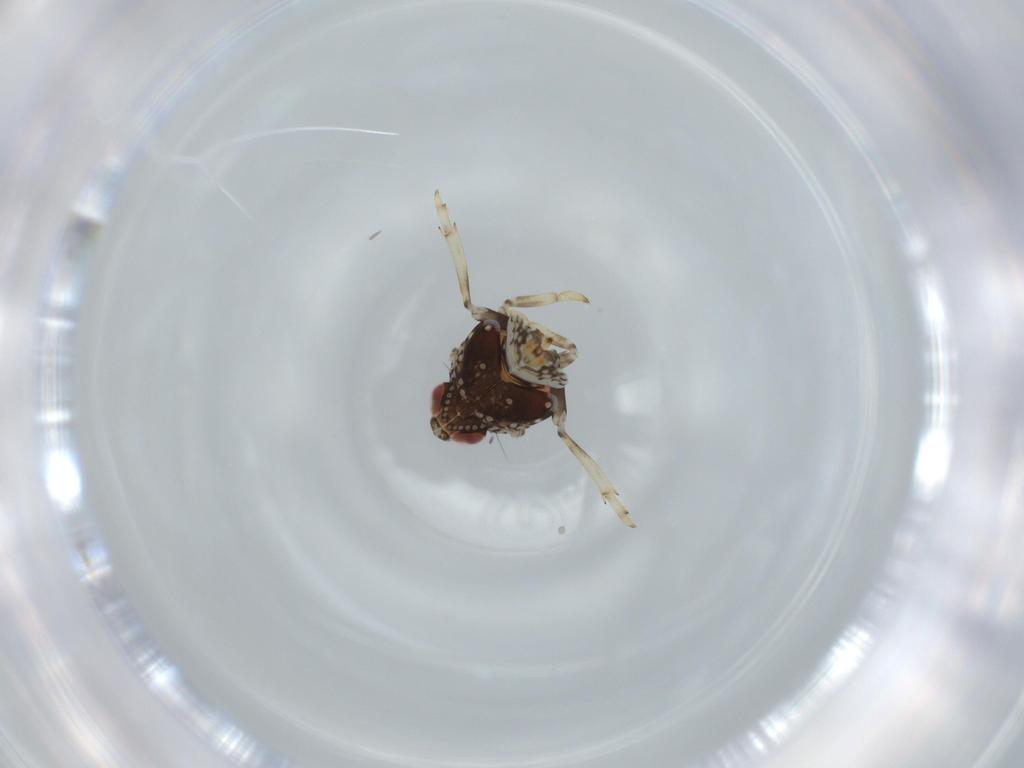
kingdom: Animalia
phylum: Arthropoda
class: Insecta
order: Hemiptera
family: Issidae
